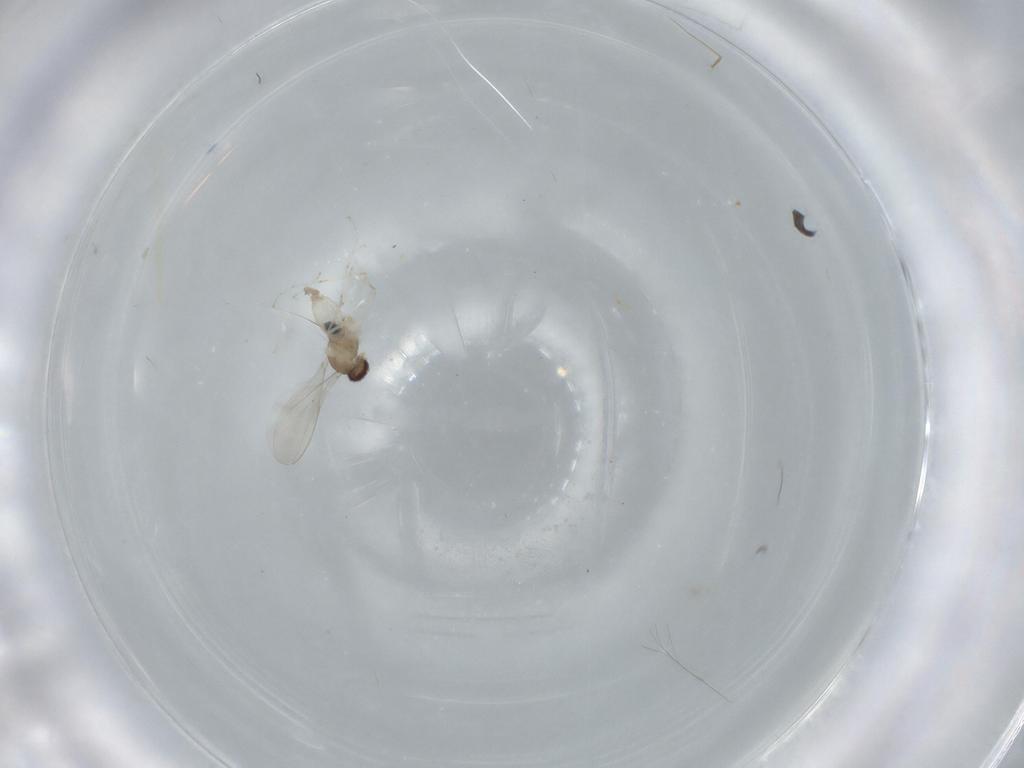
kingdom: Animalia
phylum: Arthropoda
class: Insecta
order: Diptera
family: Cecidomyiidae
